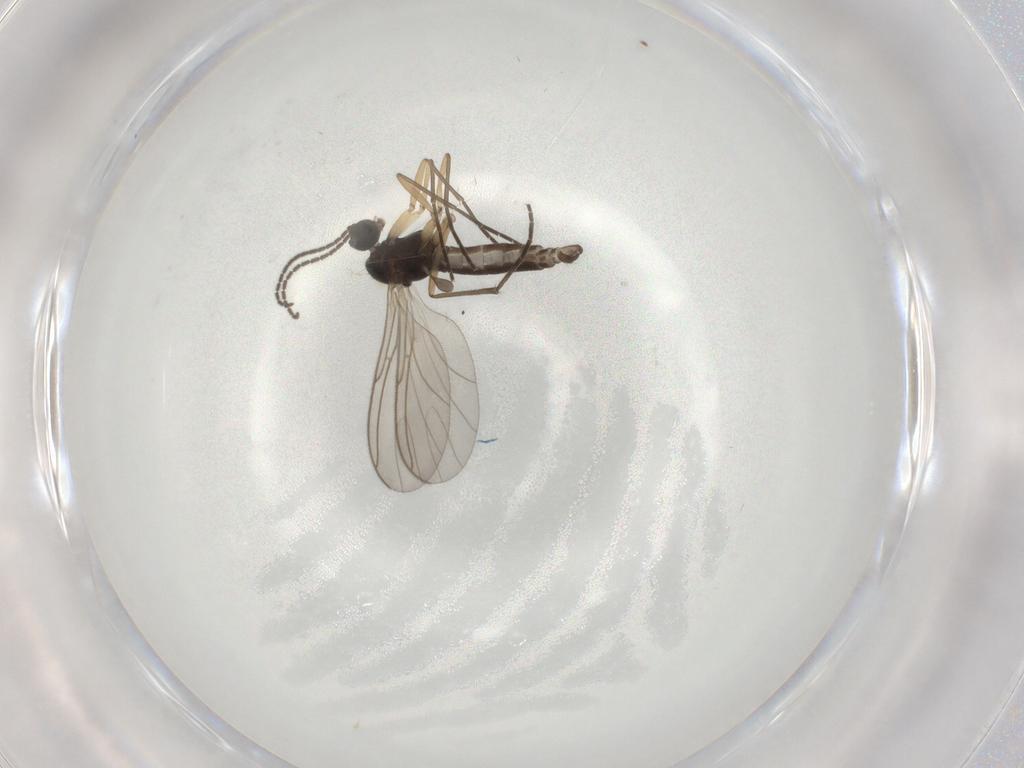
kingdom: Animalia
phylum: Arthropoda
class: Insecta
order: Diptera
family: Sciaridae
